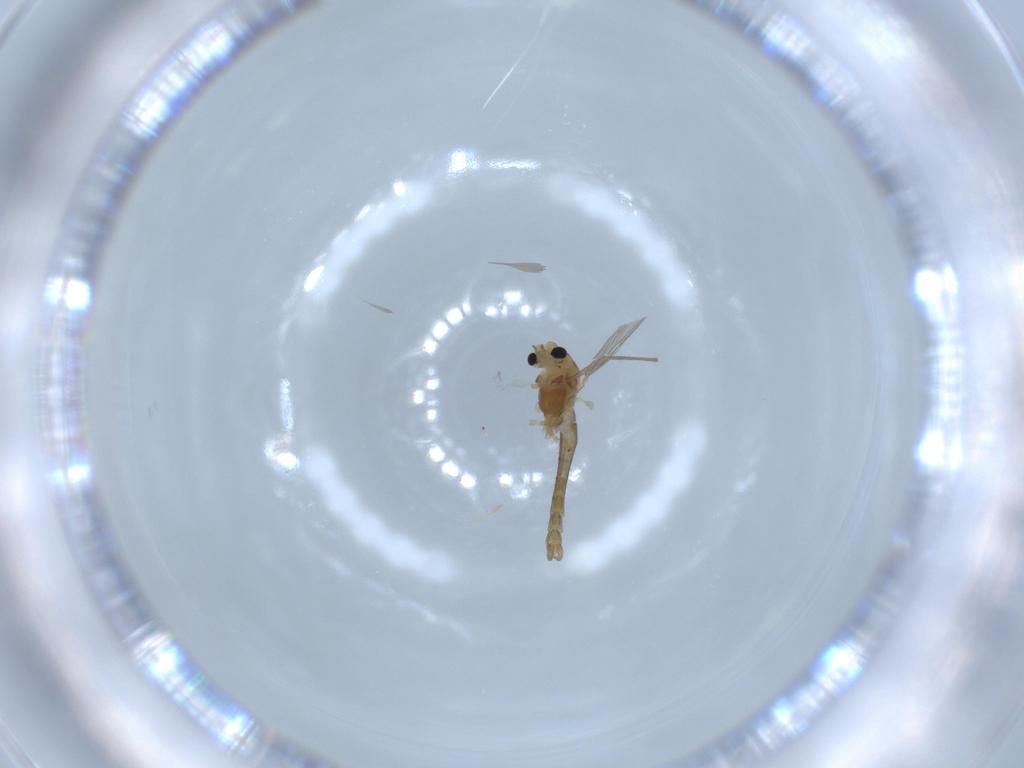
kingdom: Animalia
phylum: Arthropoda
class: Insecta
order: Diptera
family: Chironomidae
